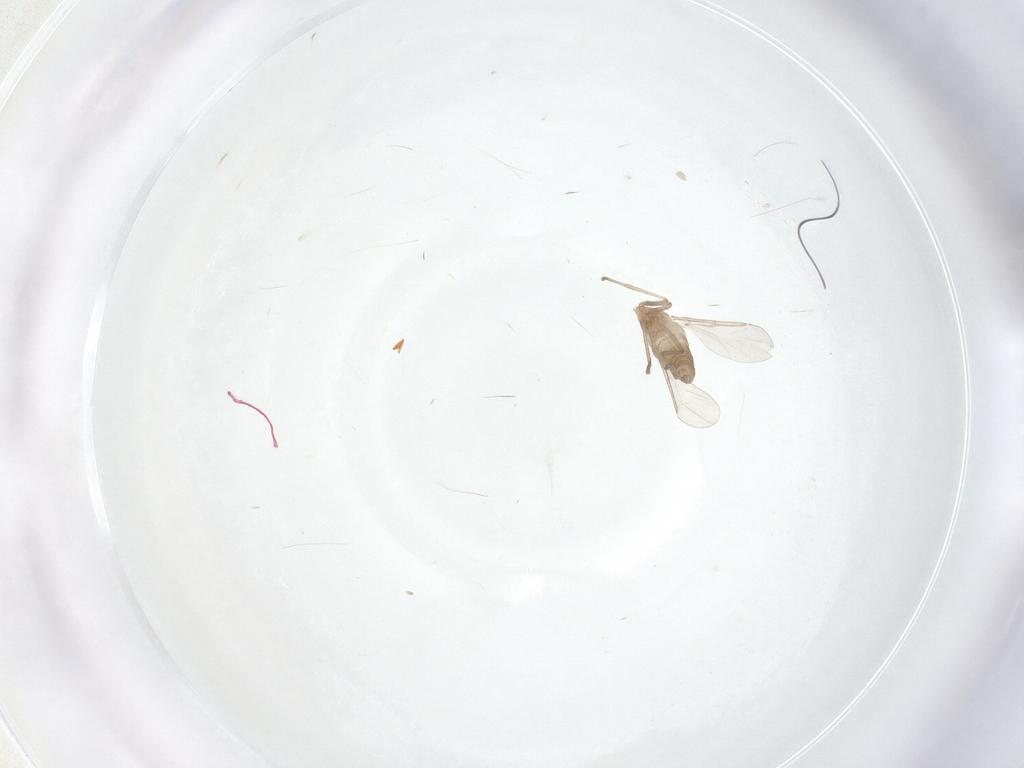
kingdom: Animalia
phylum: Arthropoda
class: Insecta
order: Diptera
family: Cecidomyiidae
